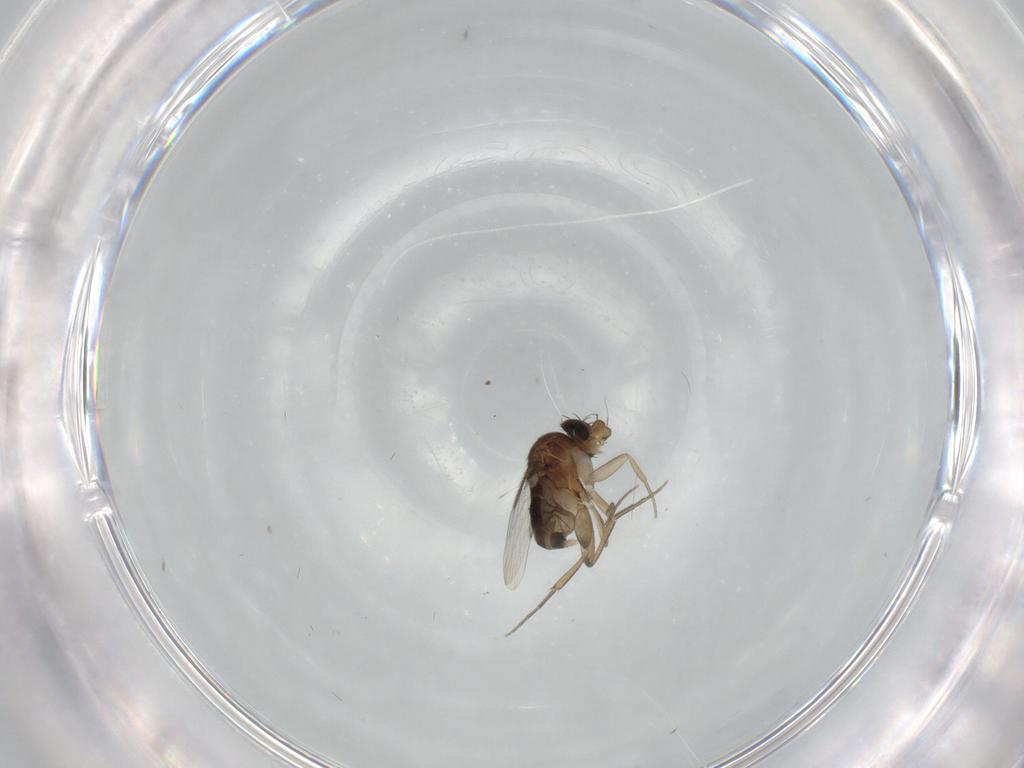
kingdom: Animalia
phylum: Arthropoda
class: Insecta
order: Diptera
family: Phoridae
